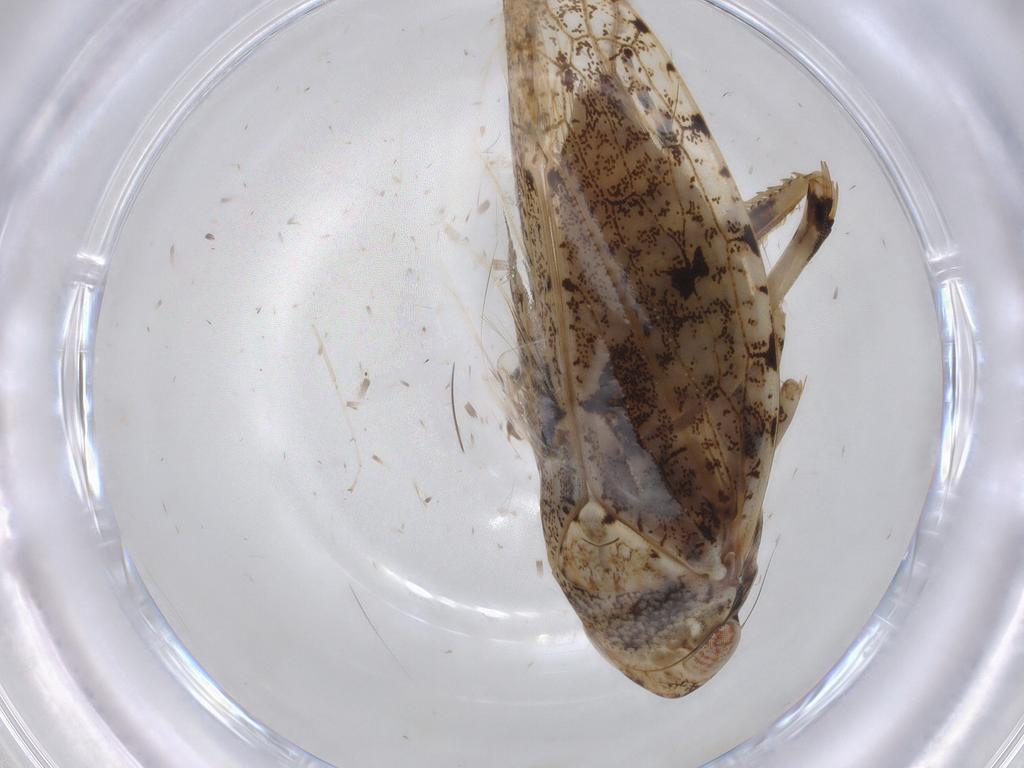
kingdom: Animalia
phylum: Arthropoda
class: Insecta
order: Hemiptera
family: Cicadellidae
